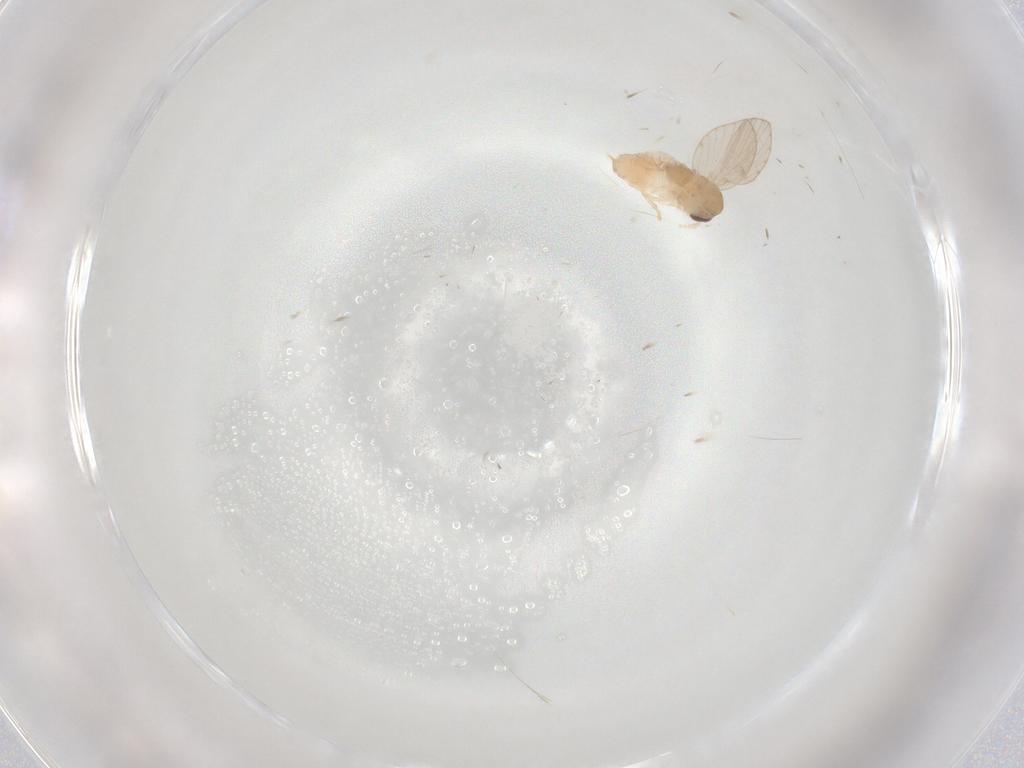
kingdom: Animalia
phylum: Arthropoda
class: Insecta
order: Diptera
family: Psychodidae
